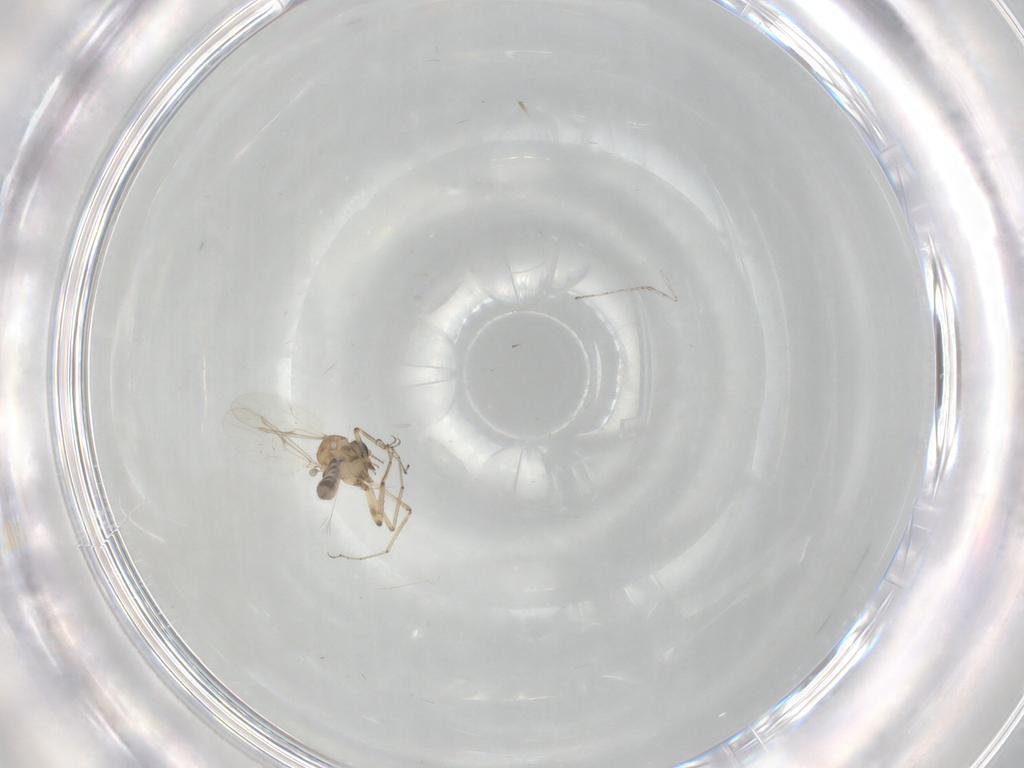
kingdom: Animalia
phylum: Arthropoda
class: Insecta
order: Diptera
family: Ceratopogonidae
